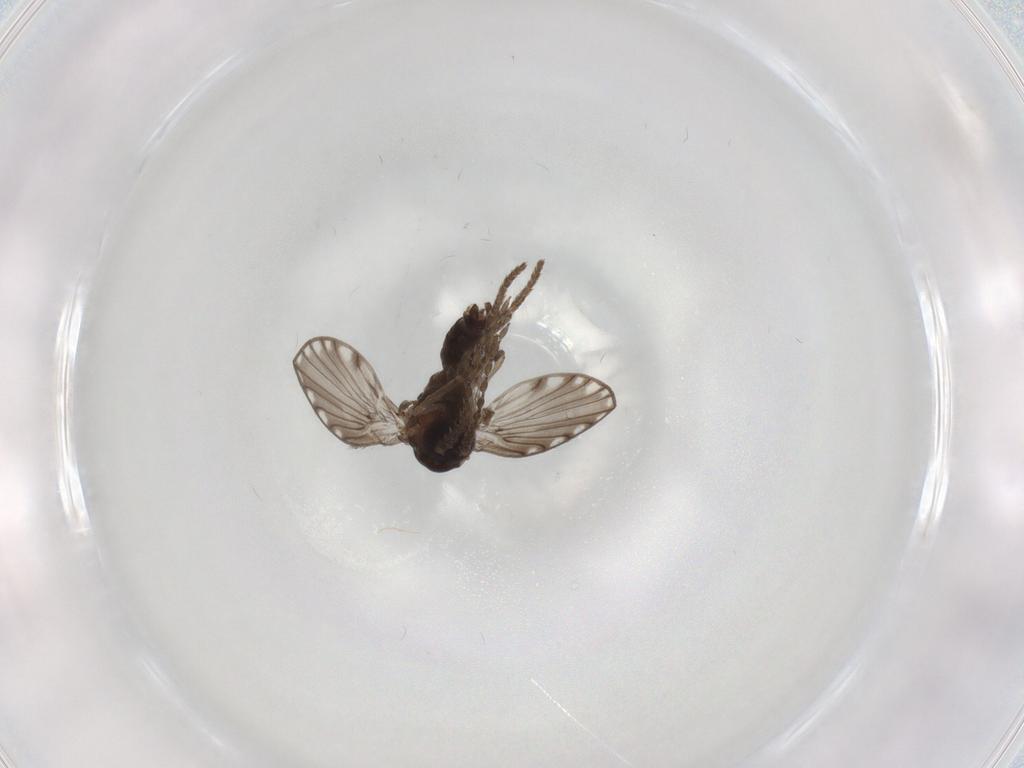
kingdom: Animalia
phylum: Arthropoda
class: Insecta
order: Diptera
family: Psychodidae
